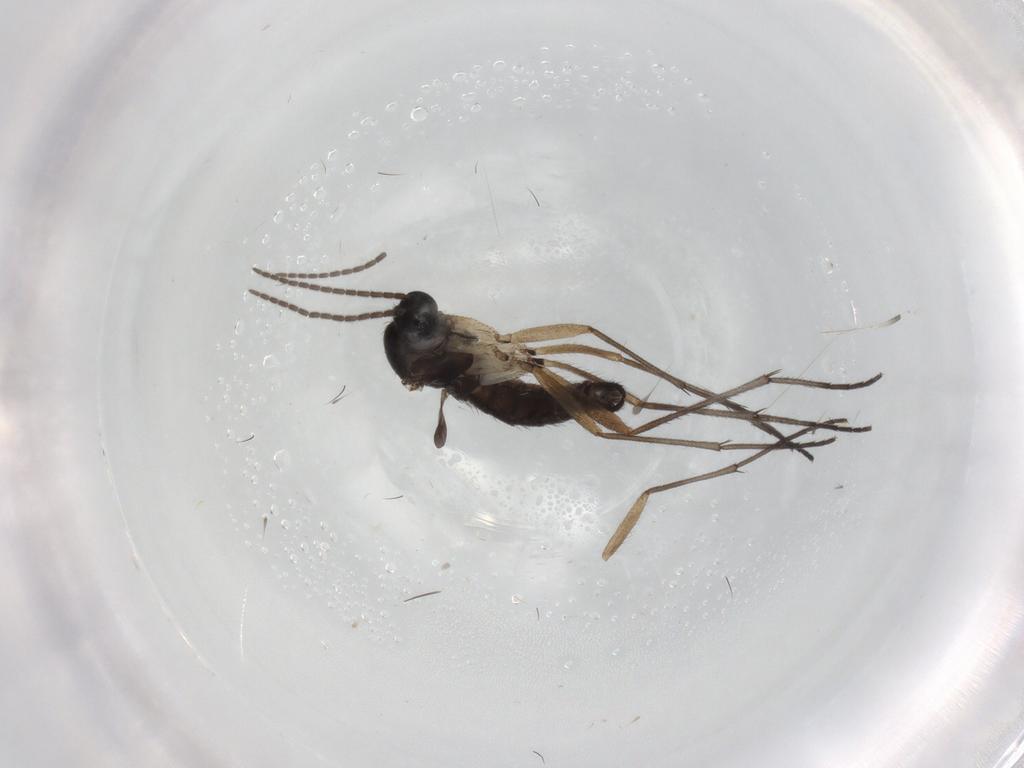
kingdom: Animalia
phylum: Arthropoda
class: Insecta
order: Diptera
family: Sciaridae
